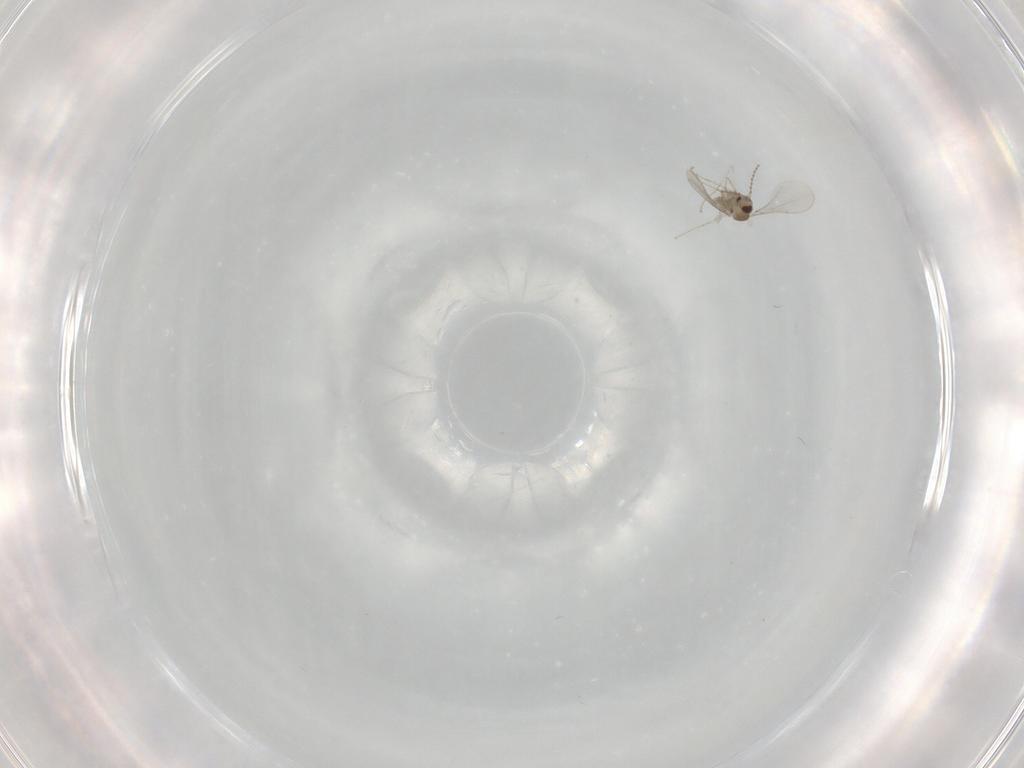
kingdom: Animalia
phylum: Arthropoda
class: Insecta
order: Diptera
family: Cecidomyiidae
